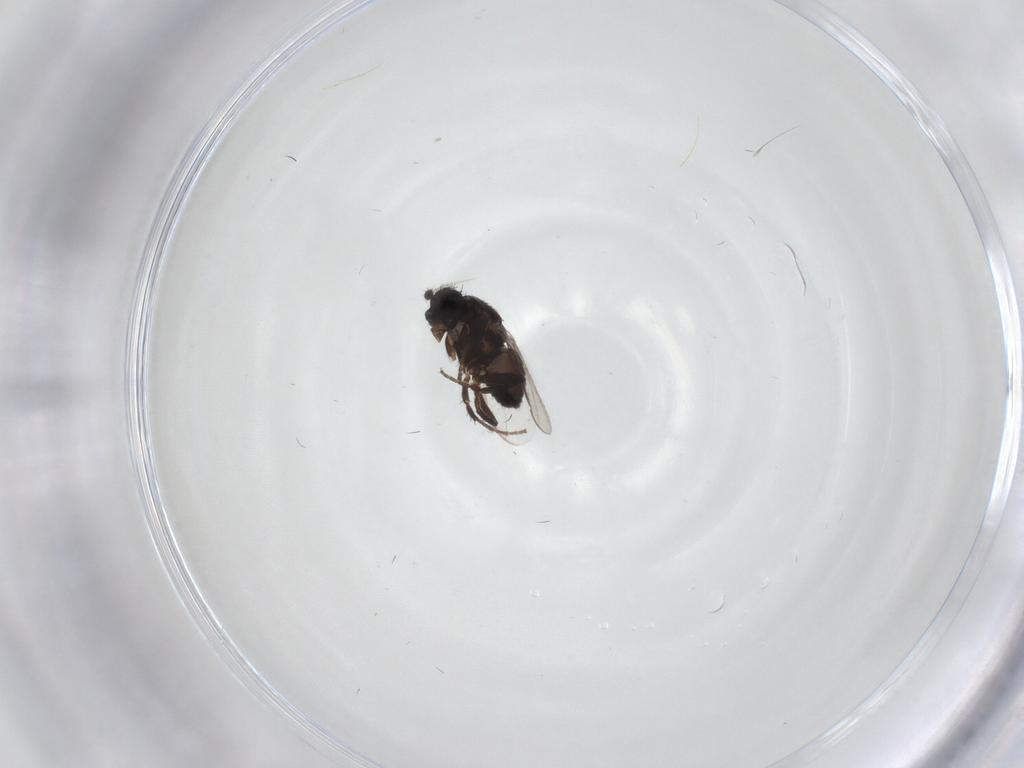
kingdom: Animalia
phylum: Arthropoda
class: Insecta
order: Diptera
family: Sphaeroceridae
